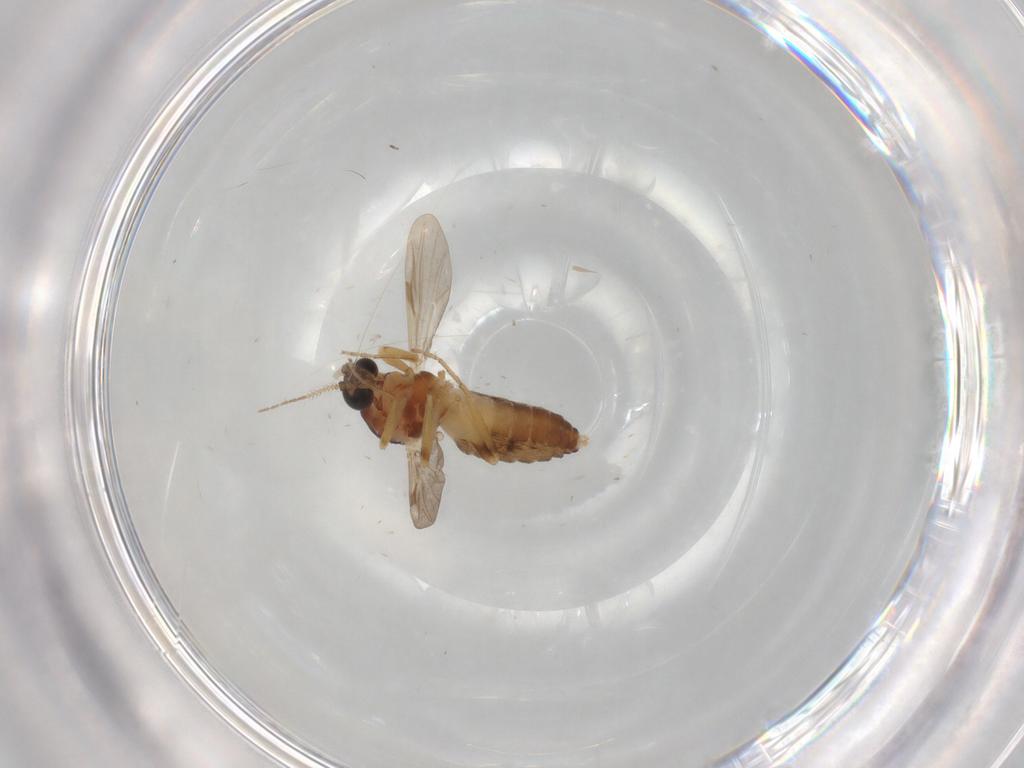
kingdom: Animalia
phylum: Arthropoda
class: Insecta
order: Diptera
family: Ceratopogonidae
